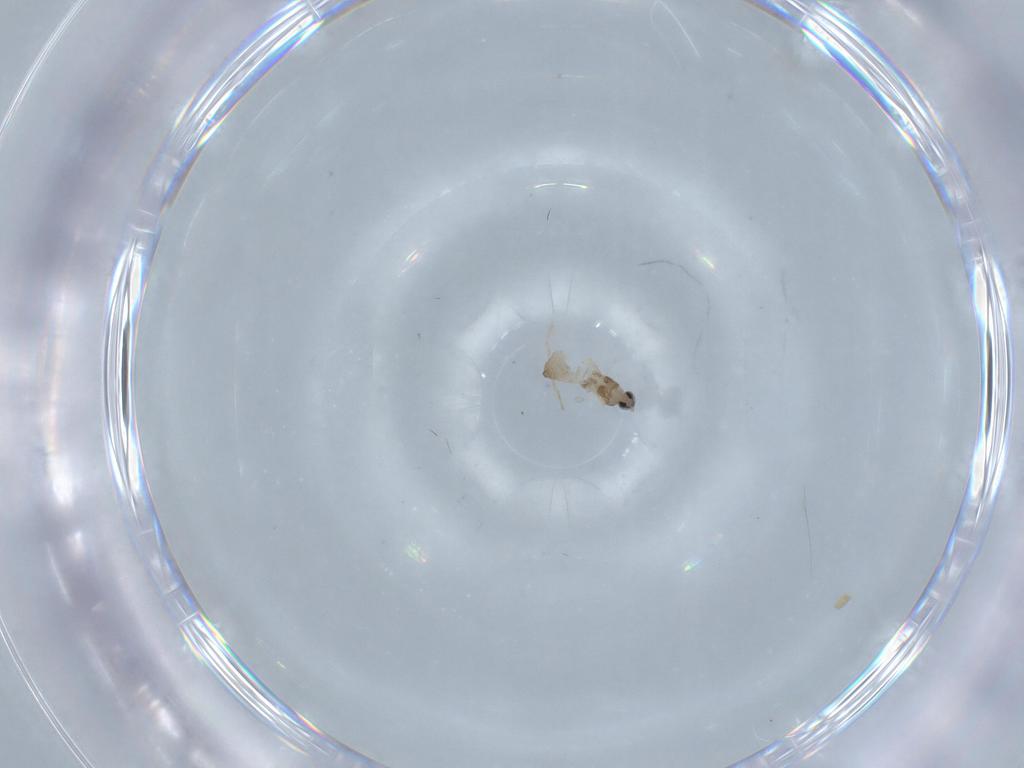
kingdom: Animalia
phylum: Arthropoda
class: Insecta
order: Diptera
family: Cecidomyiidae
